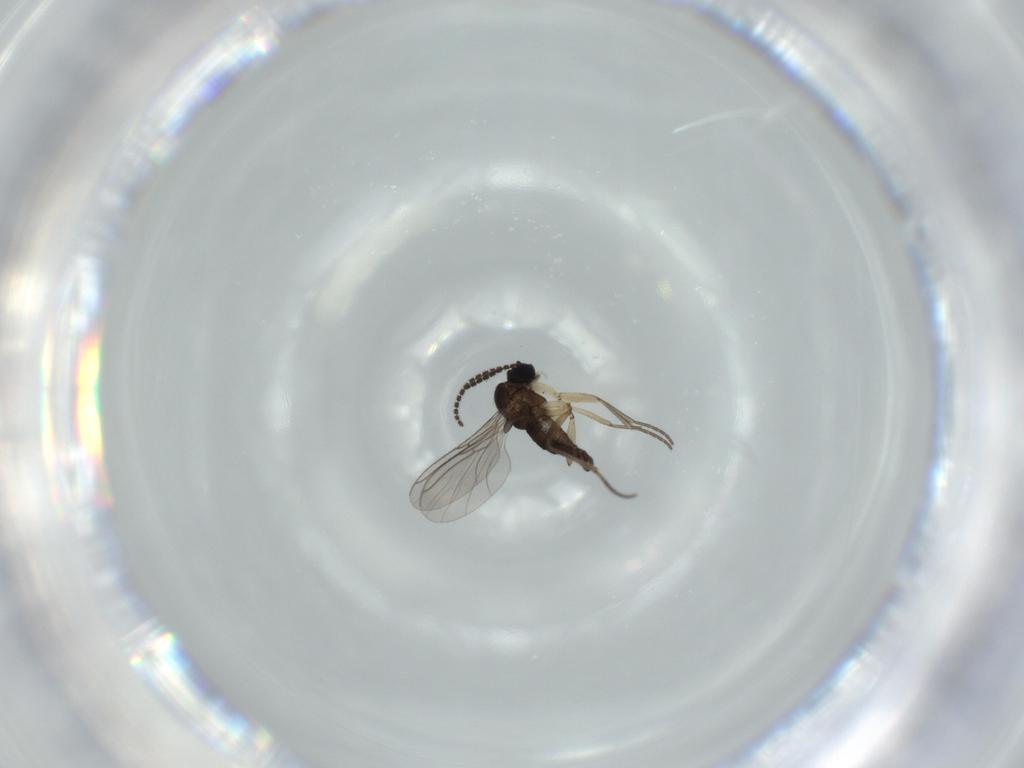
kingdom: Animalia
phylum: Arthropoda
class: Insecta
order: Diptera
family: Sciaridae
